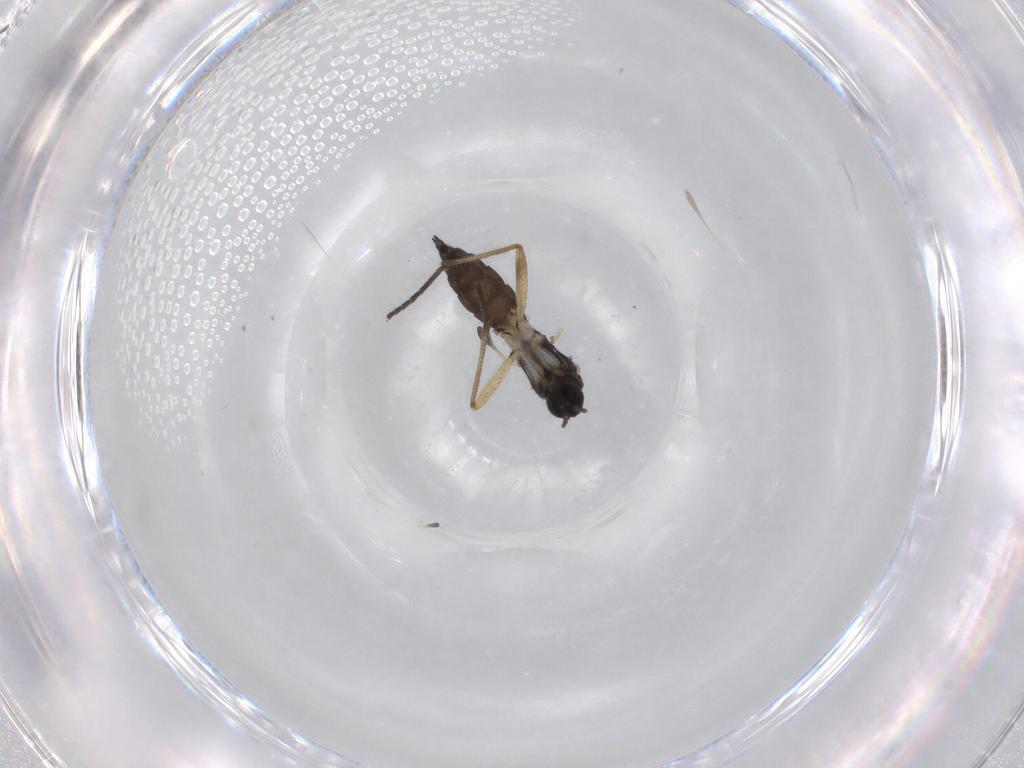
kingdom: Animalia
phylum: Arthropoda
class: Insecta
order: Diptera
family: Sciaridae
